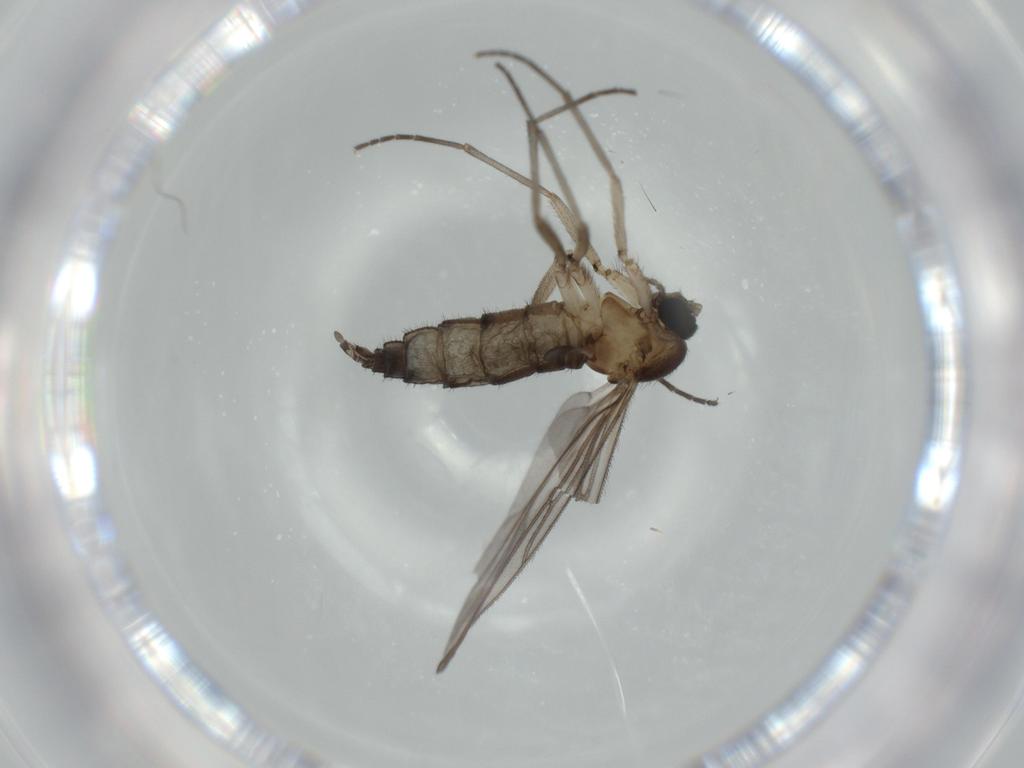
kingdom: Animalia
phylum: Arthropoda
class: Insecta
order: Diptera
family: Sciaridae
